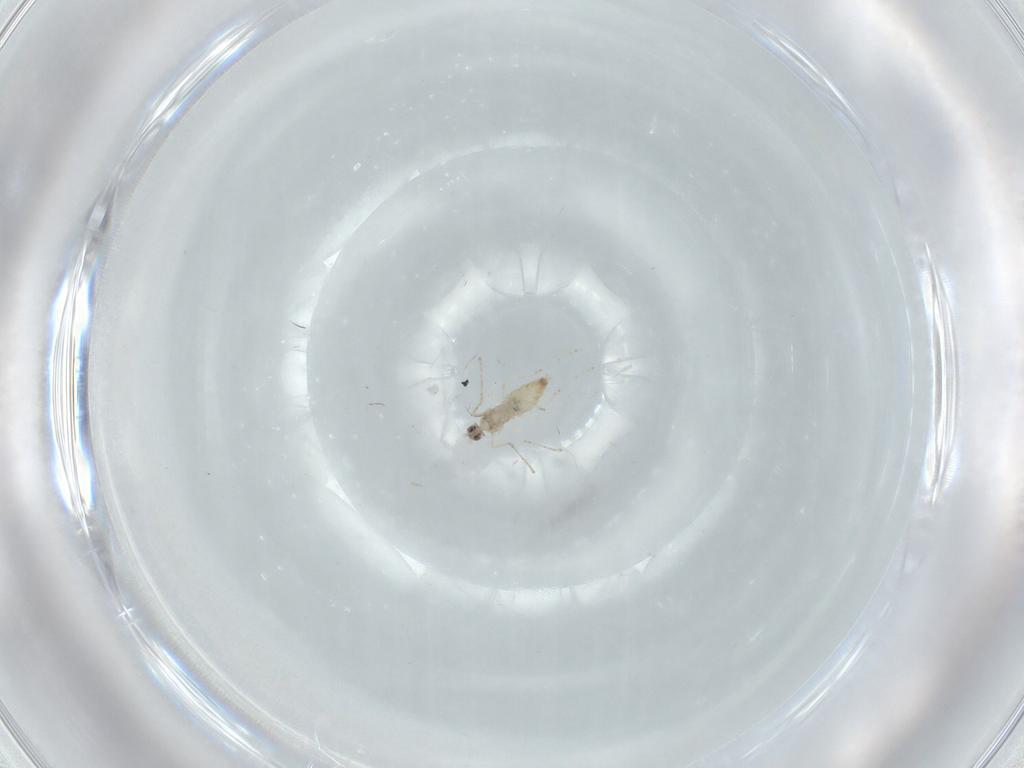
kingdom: Animalia
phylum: Arthropoda
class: Insecta
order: Diptera
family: Cecidomyiidae
